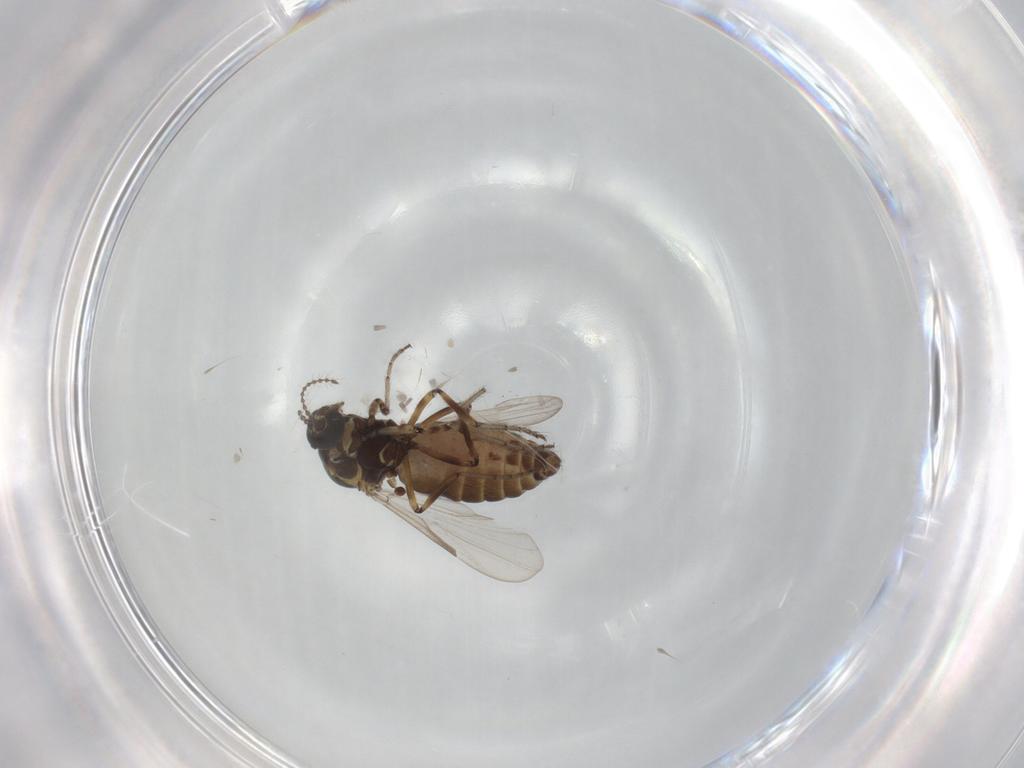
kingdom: Animalia
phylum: Arthropoda
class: Insecta
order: Diptera
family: Ceratopogonidae
